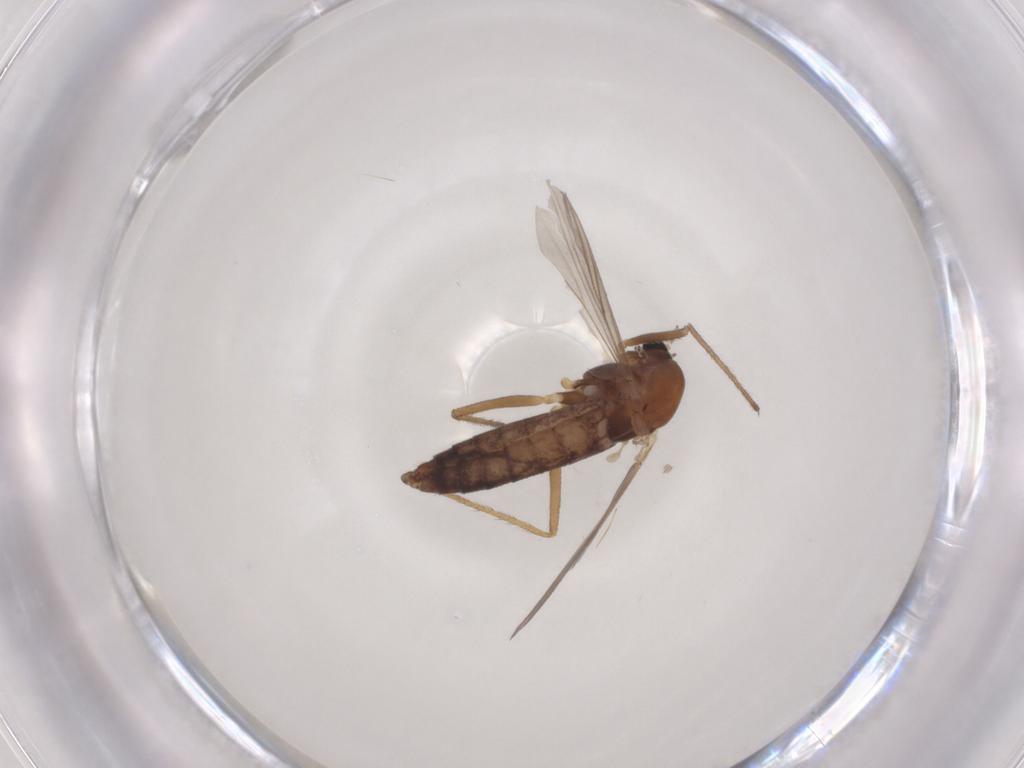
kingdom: Animalia
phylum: Arthropoda
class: Insecta
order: Diptera
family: Chironomidae
